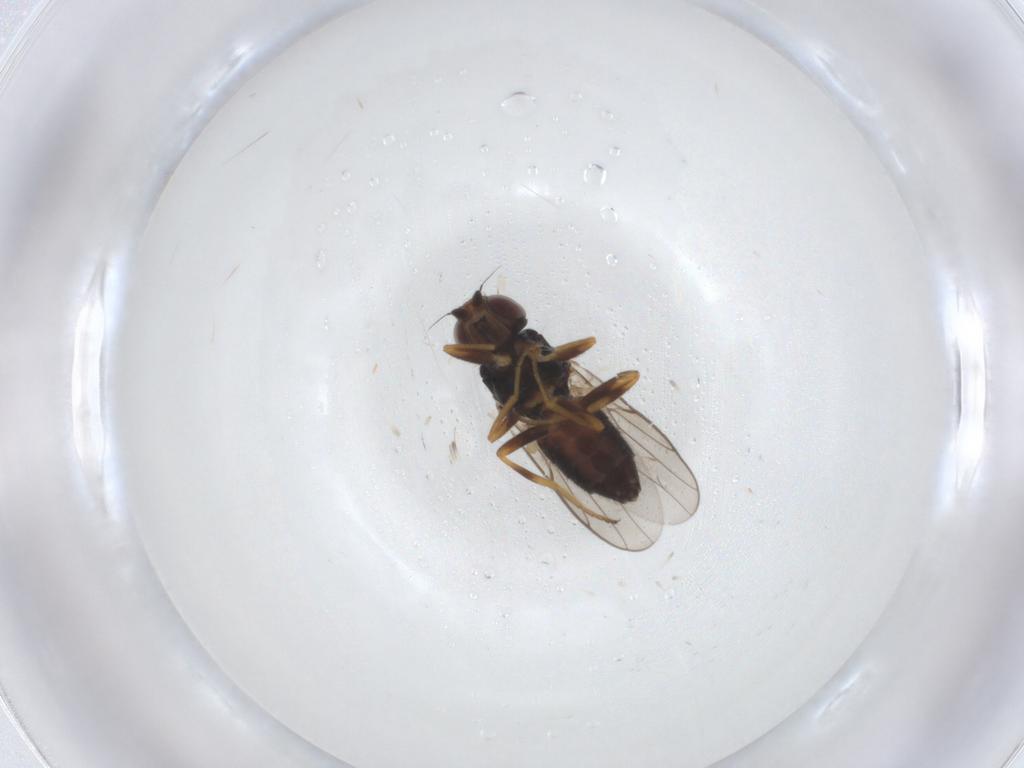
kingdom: Animalia
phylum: Arthropoda
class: Insecta
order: Diptera
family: Chloropidae
